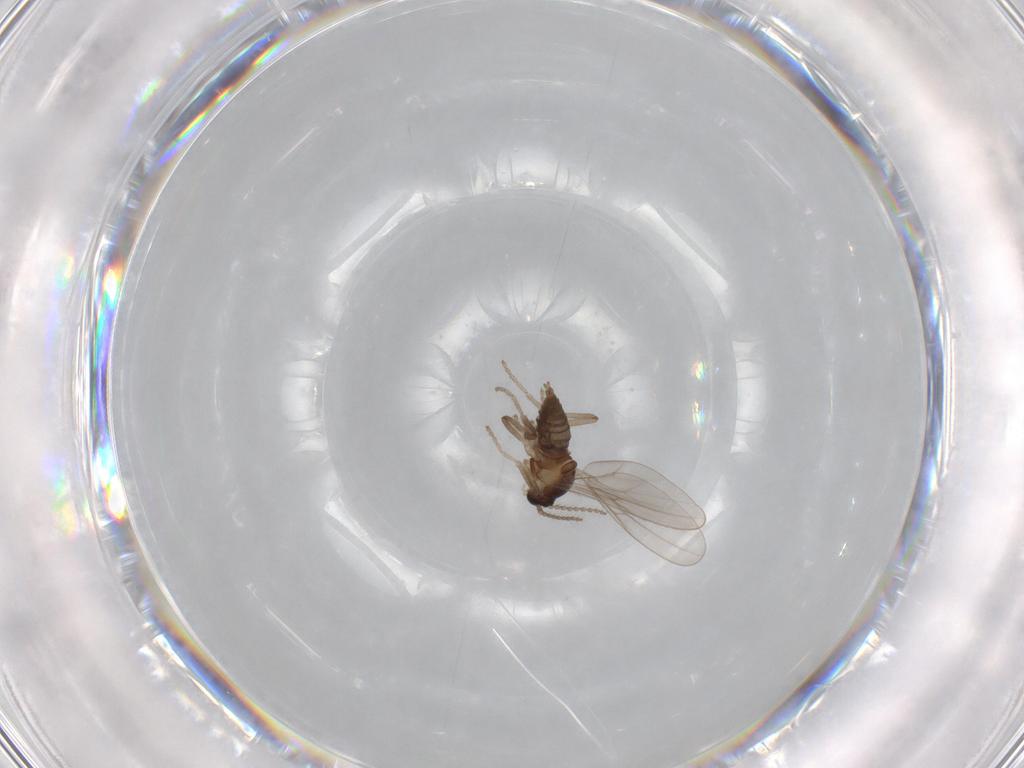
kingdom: Animalia
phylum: Arthropoda
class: Insecta
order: Diptera
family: Cecidomyiidae
